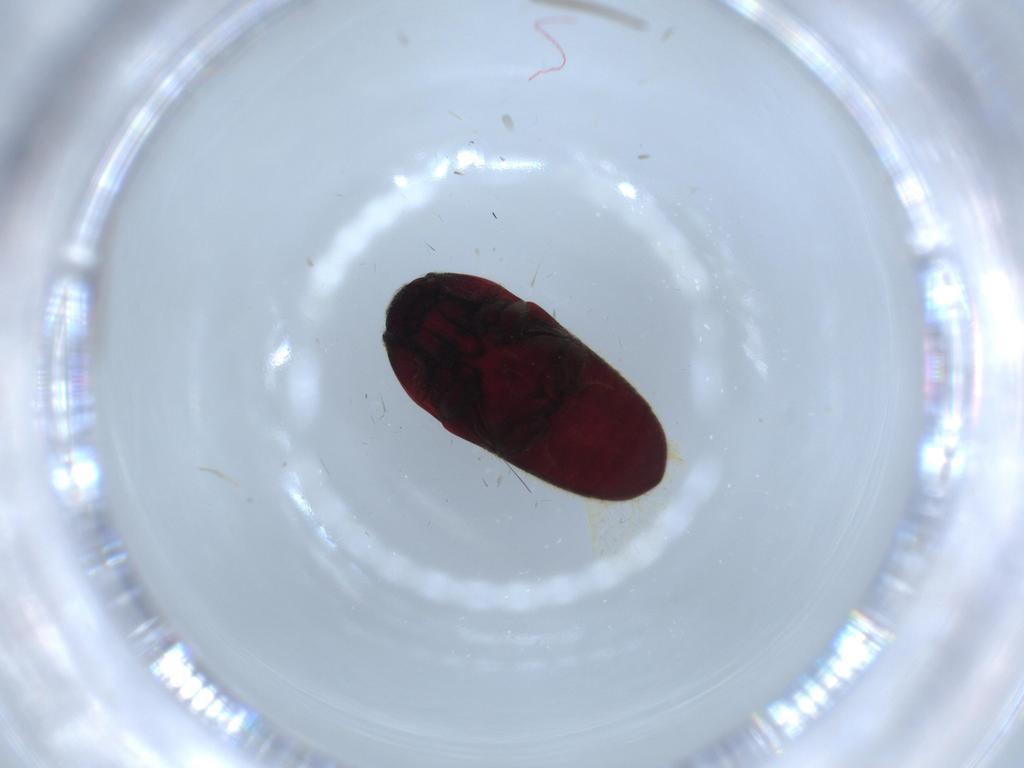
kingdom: Animalia
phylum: Arthropoda
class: Insecta
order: Coleoptera
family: Throscidae
